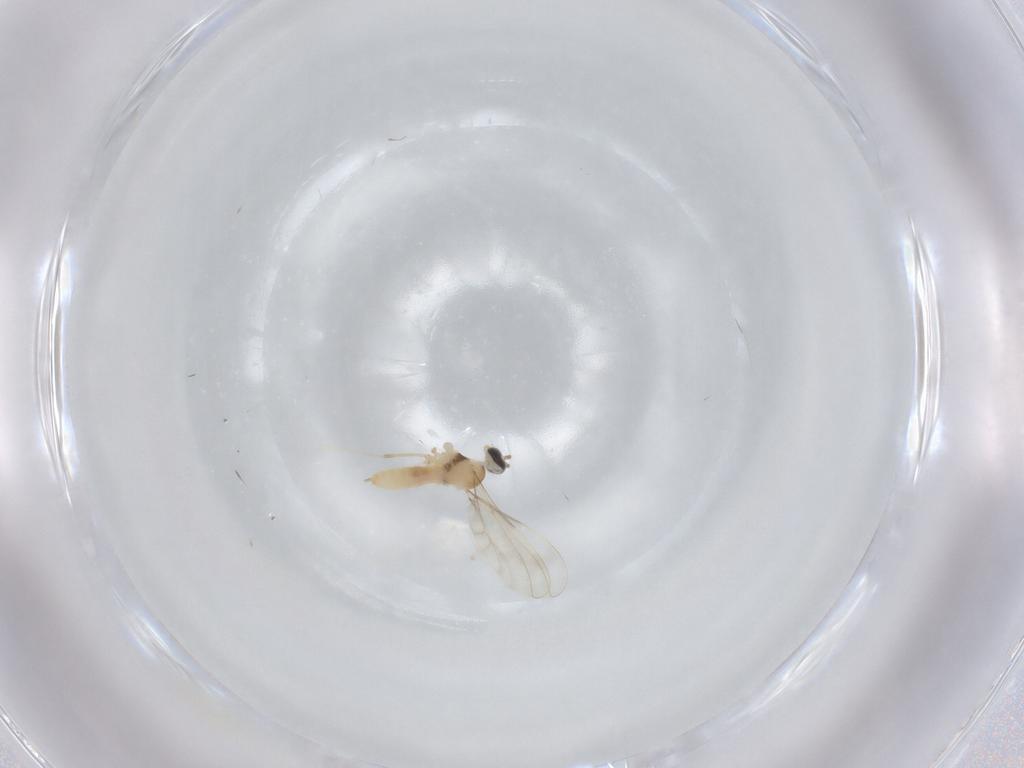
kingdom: Animalia
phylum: Arthropoda
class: Insecta
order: Diptera
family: Cecidomyiidae
